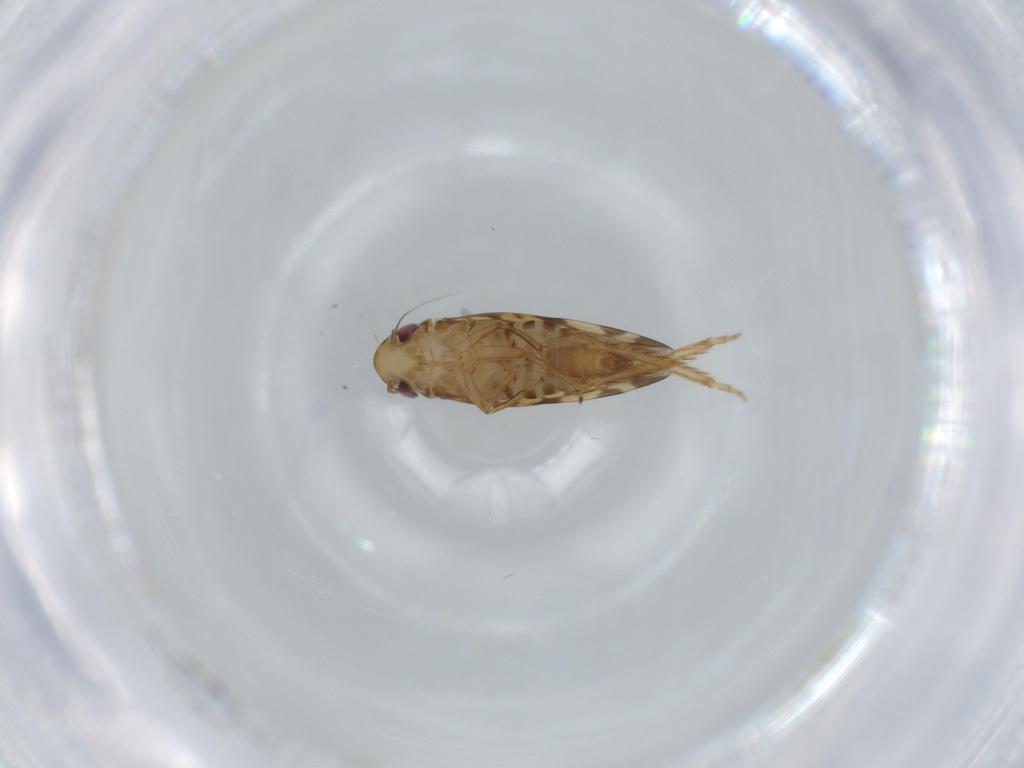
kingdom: Animalia
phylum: Arthropoda
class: Insecta
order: Hemiptera
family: Cicadellidae
